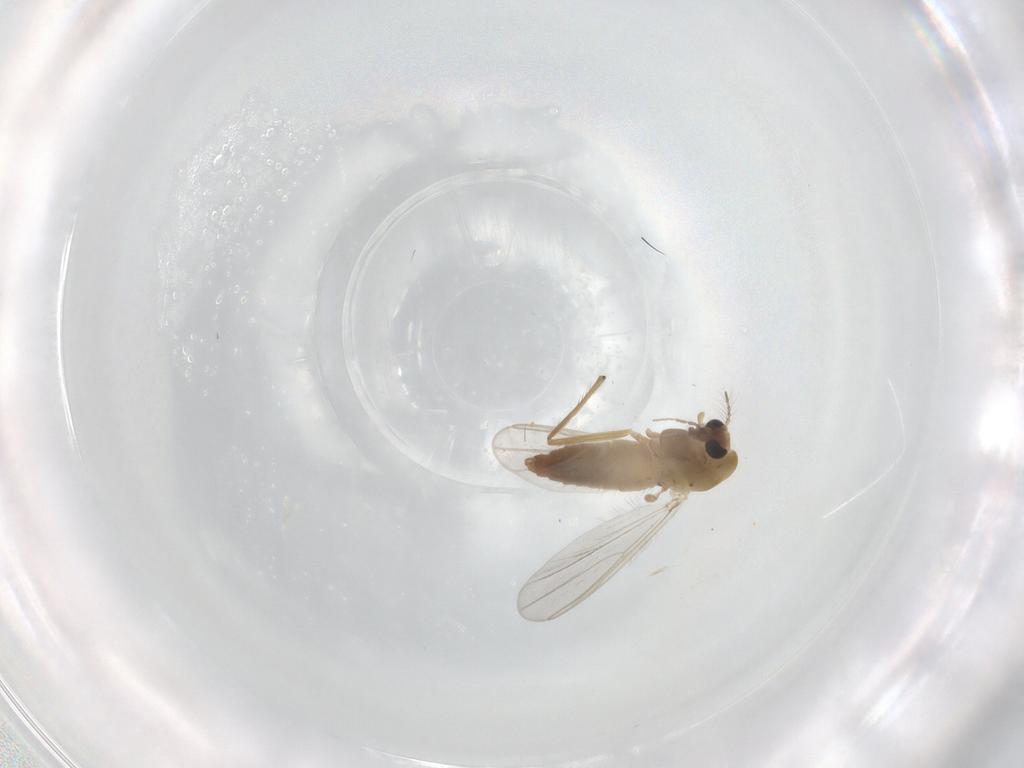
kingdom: Animalia
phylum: Arthropoda
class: Insecta
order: Diptera
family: Chironomidae
